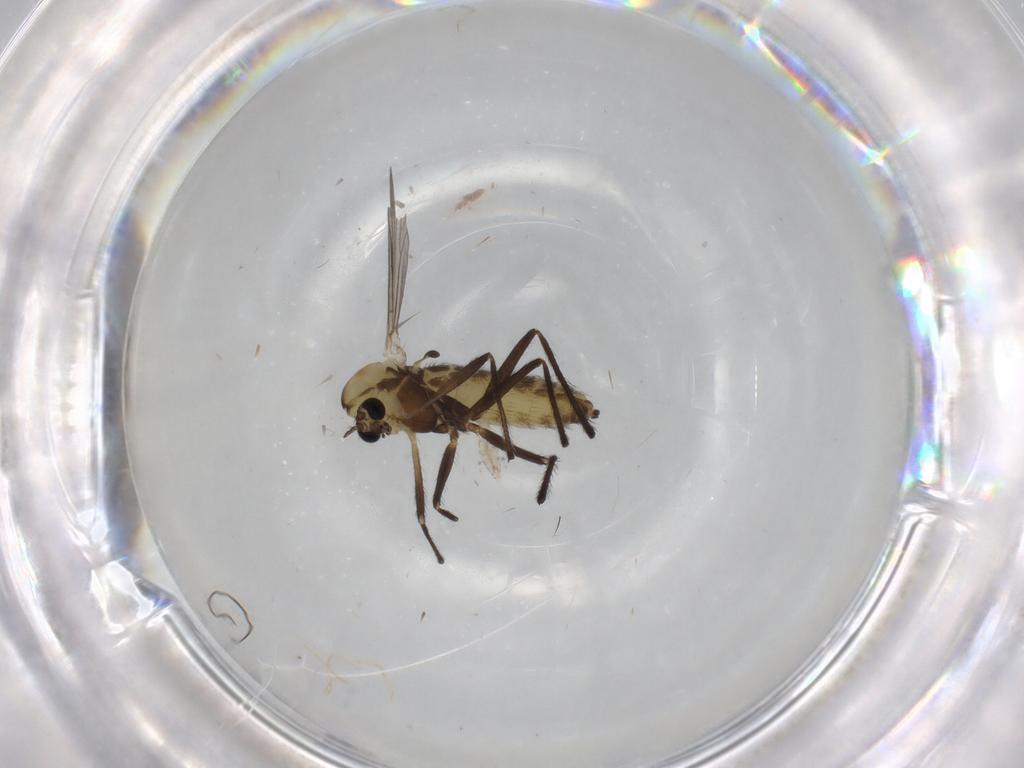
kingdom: Animalia
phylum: Arthropoda
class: Insecta
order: Diptera
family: Chironomidae
